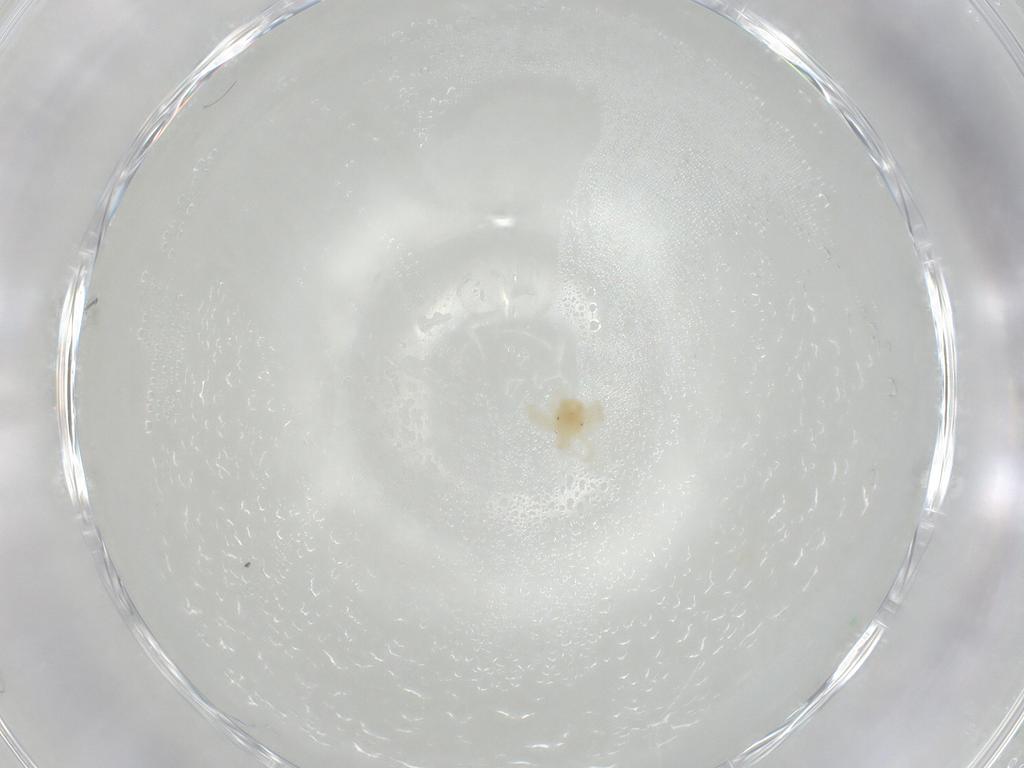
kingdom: Animalia
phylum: Arthropoda
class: Arachnida
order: Trombidiformes
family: Anystidae
